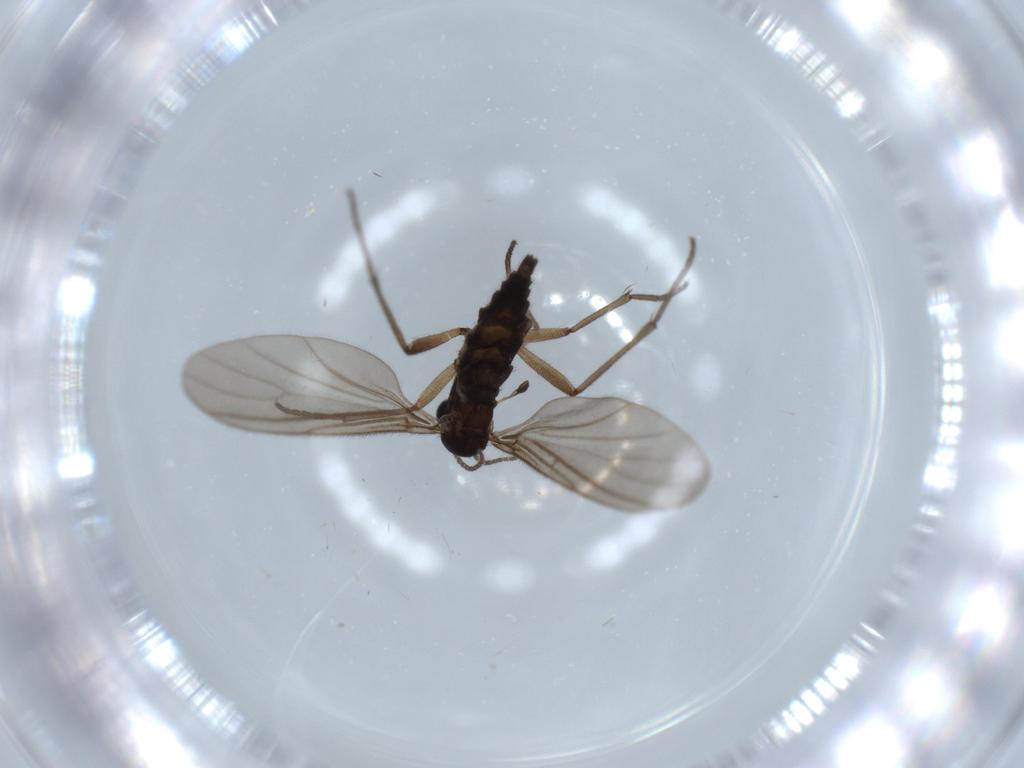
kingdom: Animalia
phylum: Arthropoda
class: Insecta
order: Diptera
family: Sciaridae
